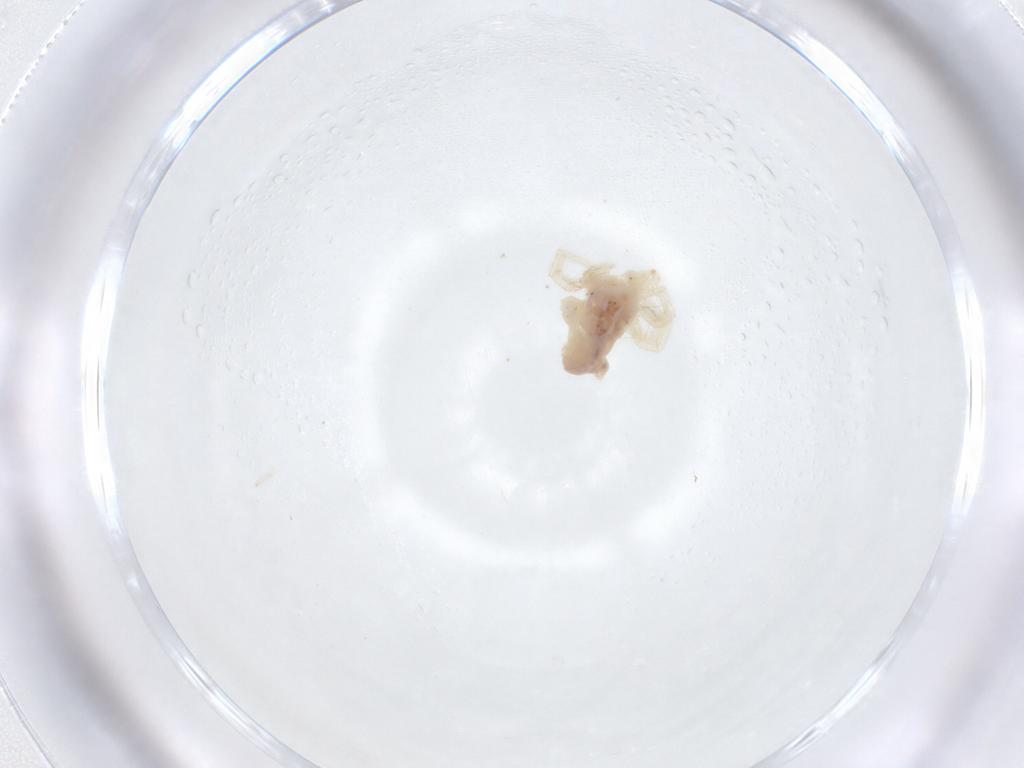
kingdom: Animalia
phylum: Arthropoda
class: Arachnida
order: Trombidiformes
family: Anystidae
